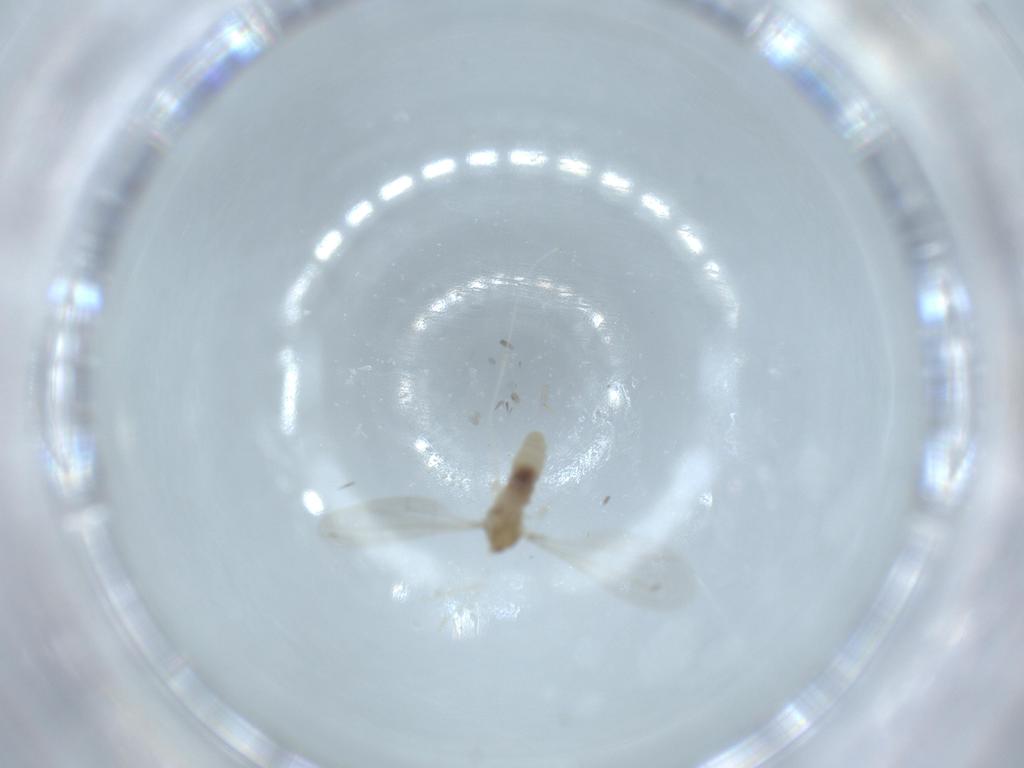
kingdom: Animalia
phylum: Arthropoda
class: Insecta
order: Diptera
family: Cecidomyiidae
